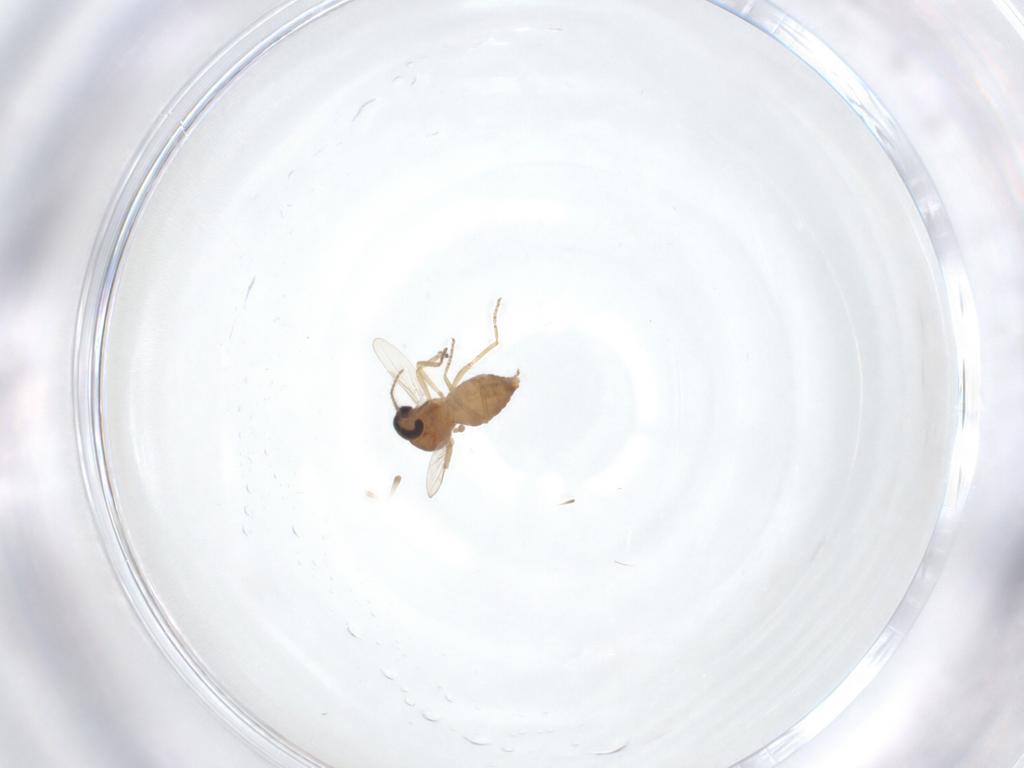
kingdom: Animalia
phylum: Arthropoda
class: Insecta
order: Diptera
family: Ceratopogonidae
